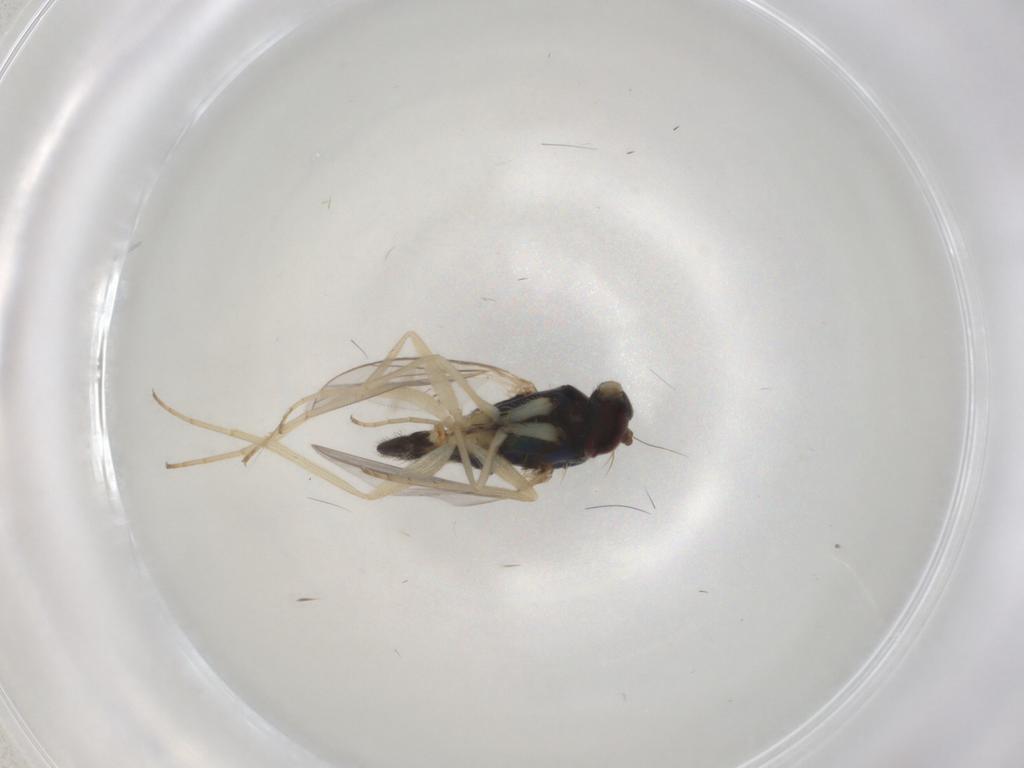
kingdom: Animalia
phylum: Arthropoda
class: Insecta
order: Diptera
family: Dolichopodidae
